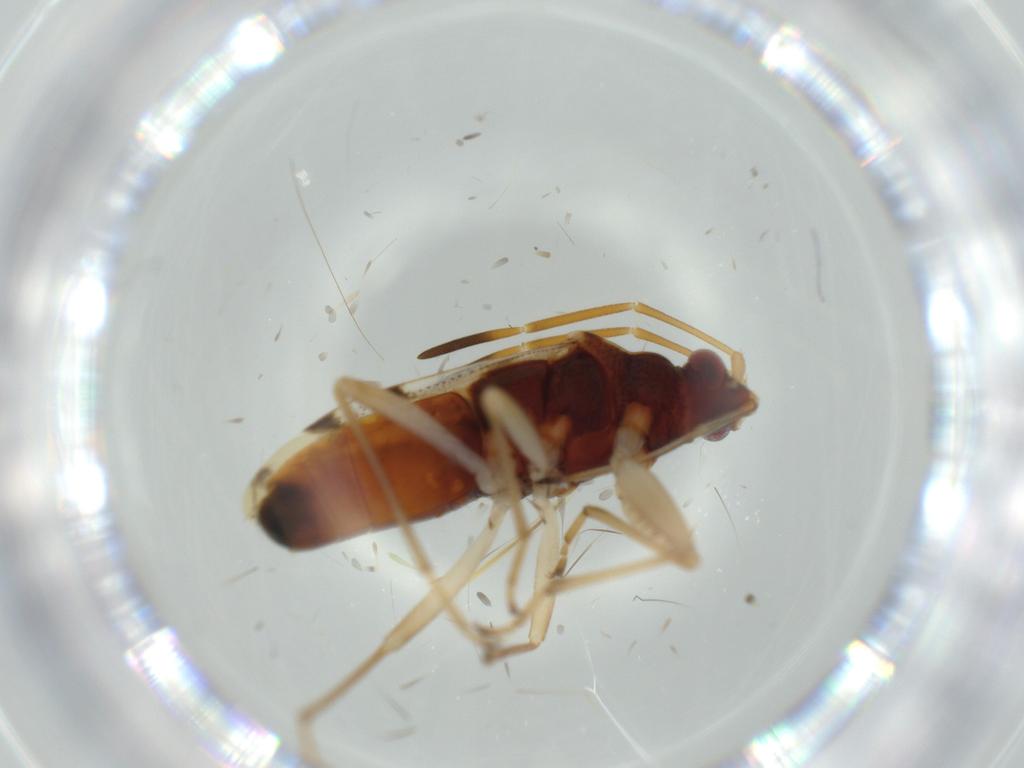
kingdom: Animalia
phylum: Arthropoda
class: Insecta
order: Hemiptera
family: Rhyparochromidae
